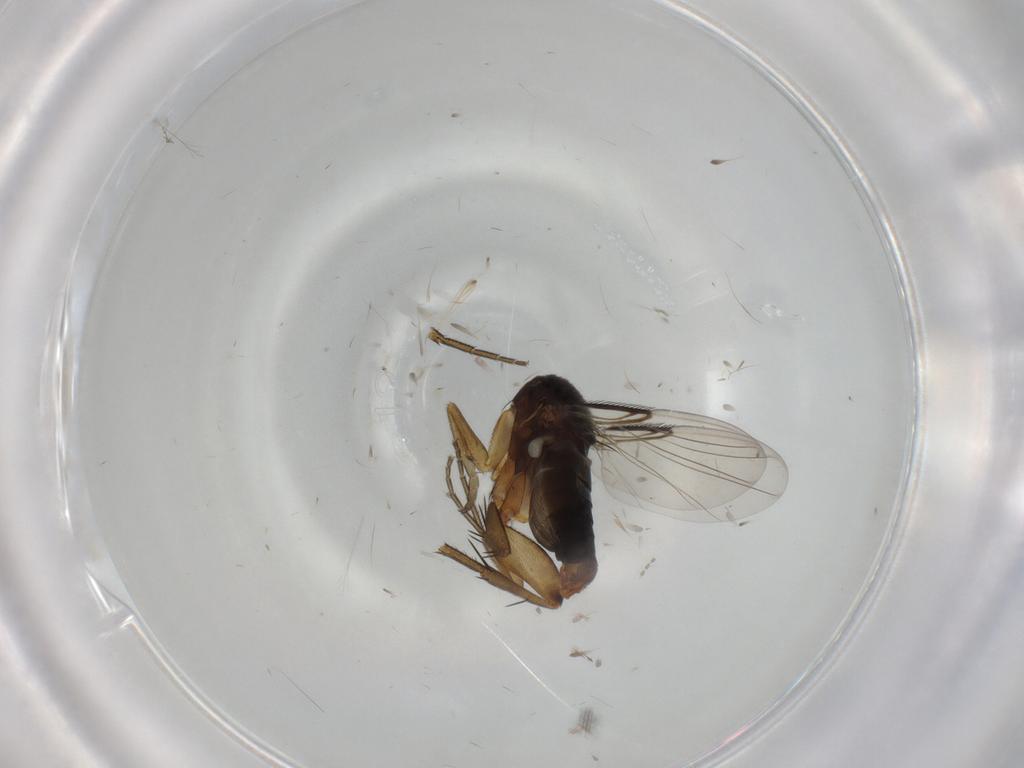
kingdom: Animalia
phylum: Arthropoda
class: Insecta
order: Diptera
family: Phoridae
